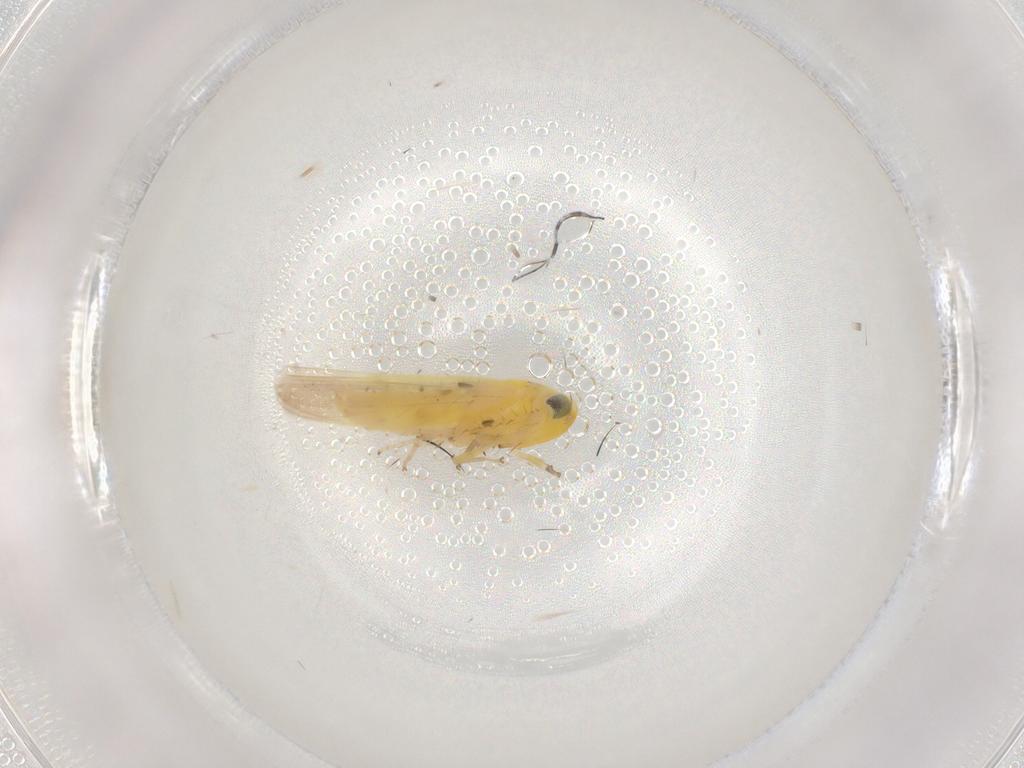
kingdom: Animalia
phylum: Arthropoda
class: Insecta
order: Hemiptera
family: Cicadellidae
